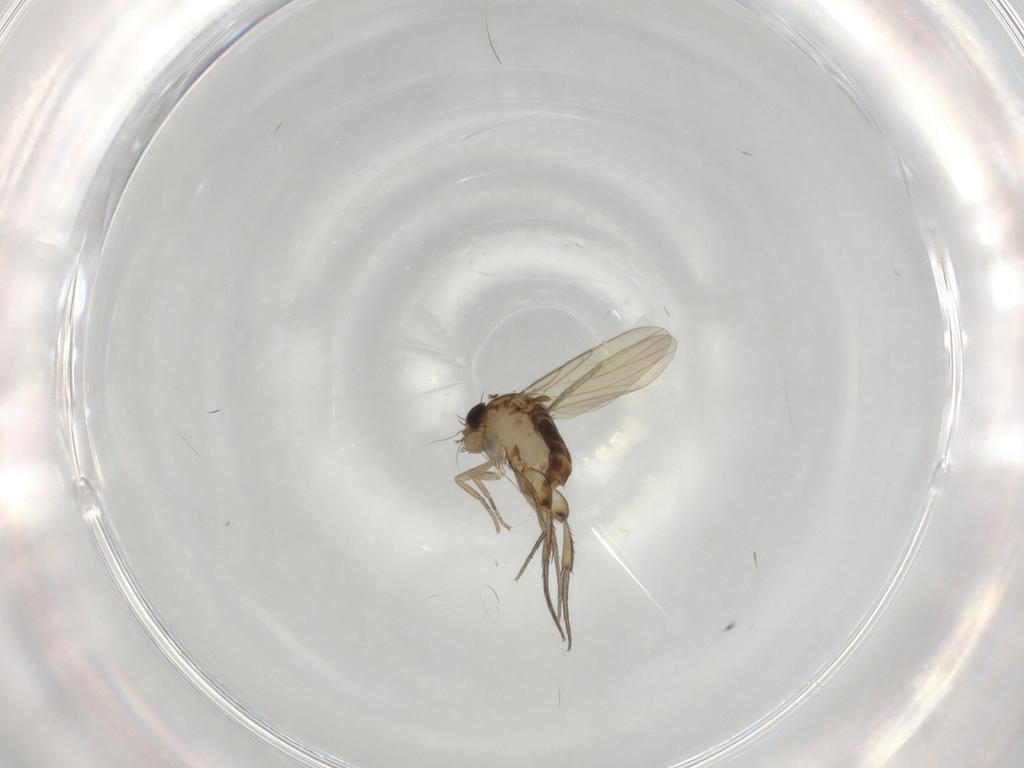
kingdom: Animalia
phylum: Arthropoda
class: Insecta
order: Diptera
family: Phoridae
